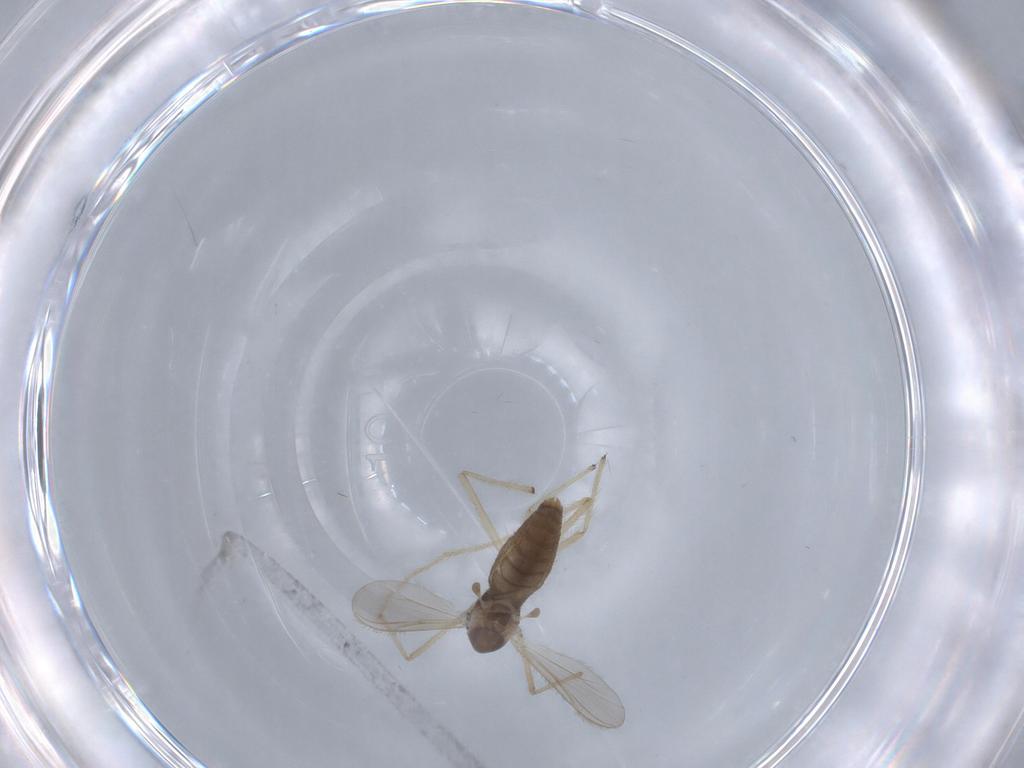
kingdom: Animalia
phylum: Arthropoda
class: Insecta
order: Diptera
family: Chironomidae
